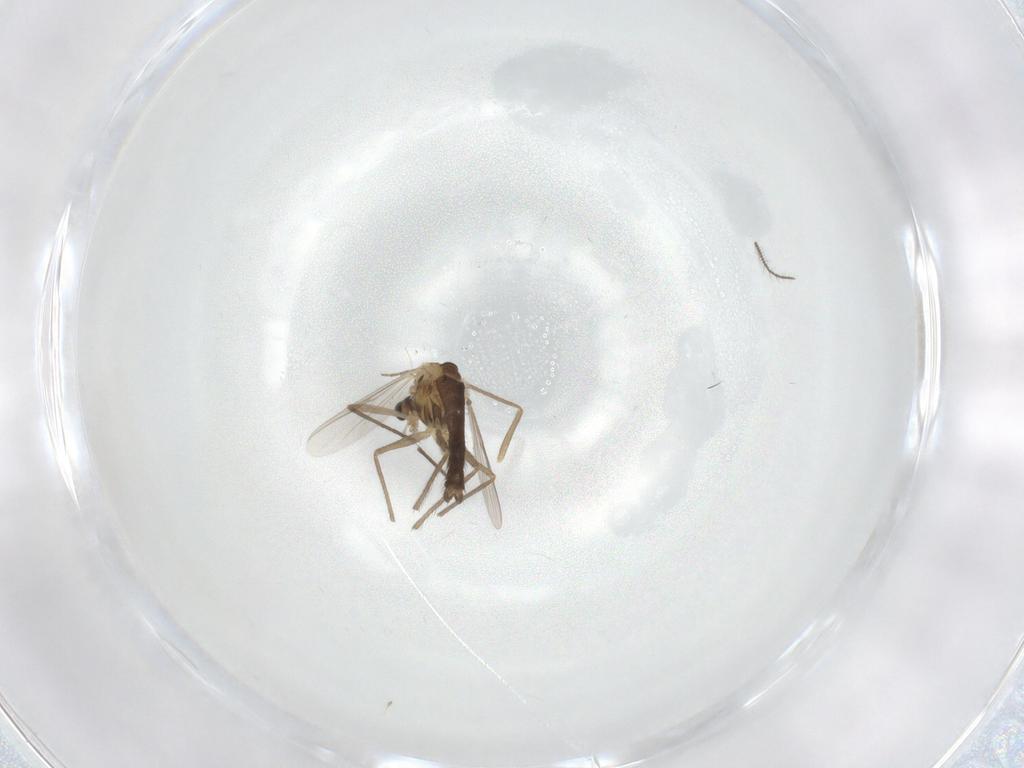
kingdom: Animalia
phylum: Arthropoda
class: Insecta
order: Diptera
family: Chironomidae
